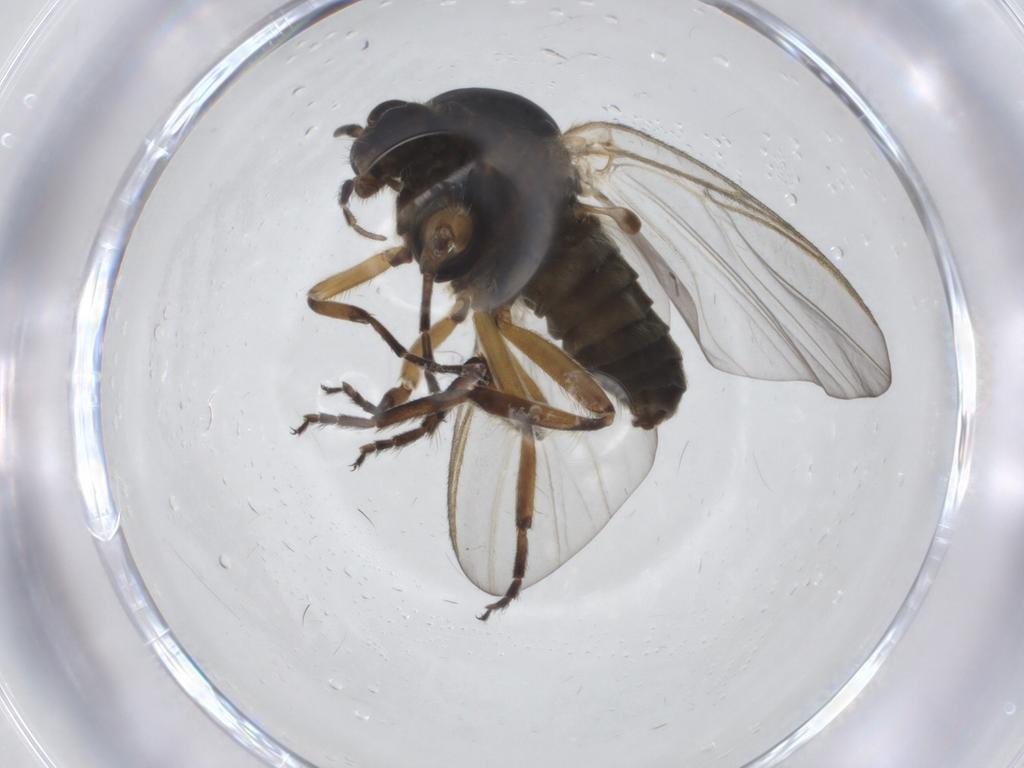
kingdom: Animalia
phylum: Arthropoda
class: Insecta
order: Diptera
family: Simuliidae
